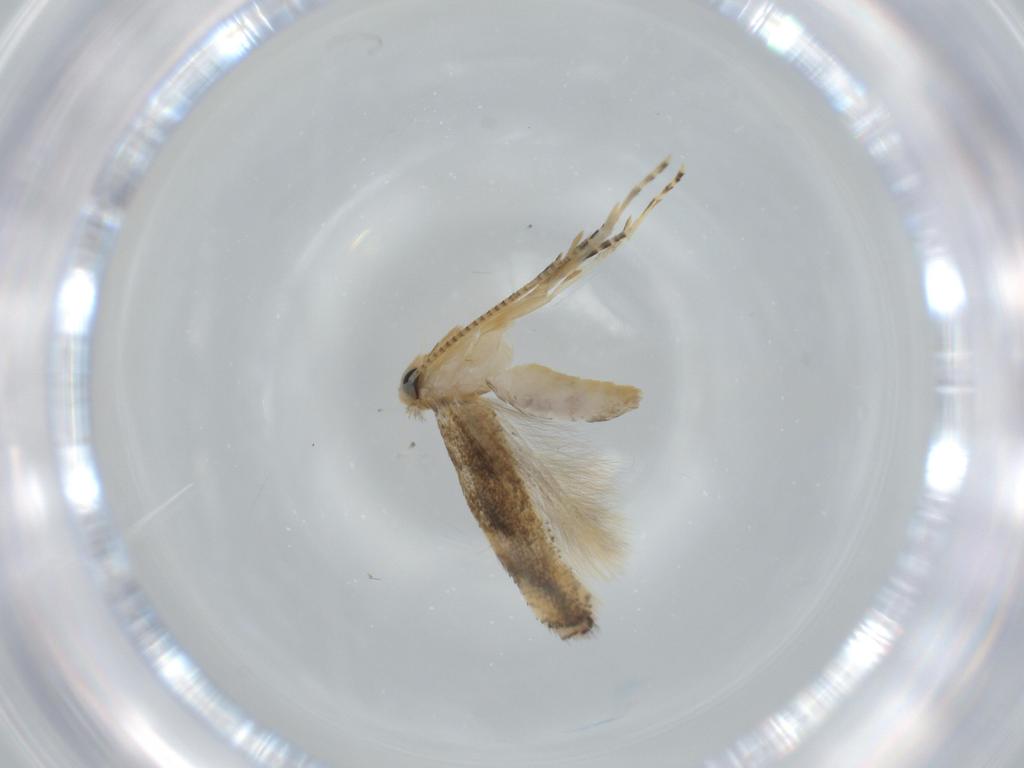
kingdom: Animalia
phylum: Arthropoda
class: Insecta
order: Lepidoptera
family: Bucculatricidae
